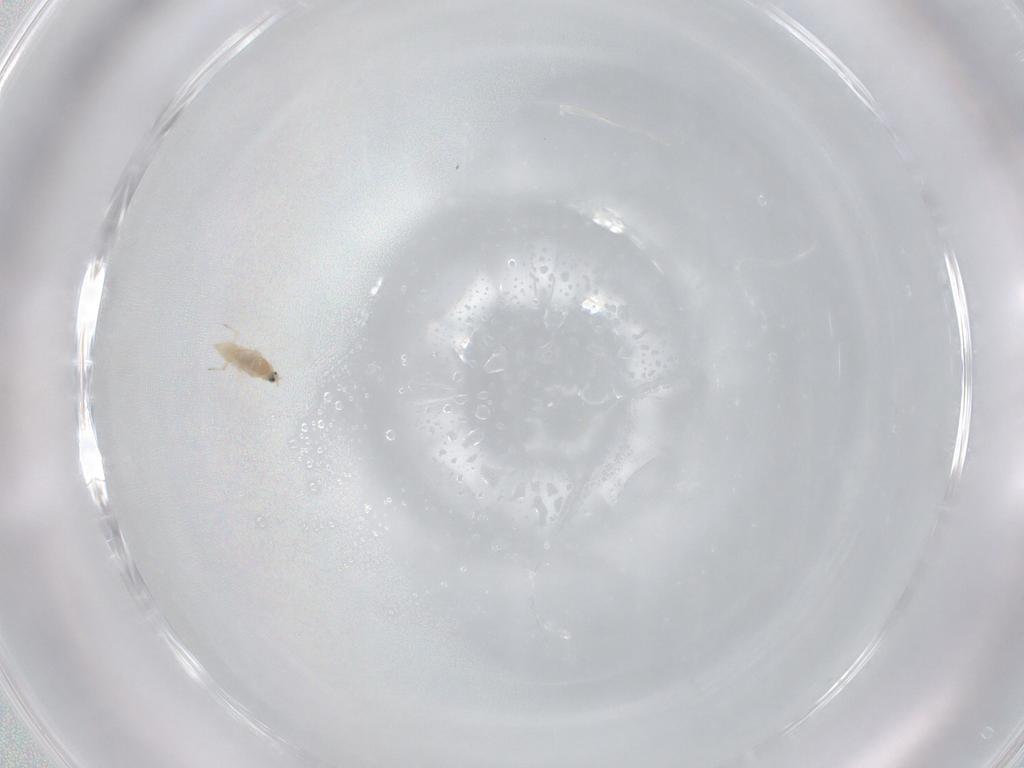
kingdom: Animalia
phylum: Arthropoda
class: Insecta
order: Hemiptera
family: Coccoidea_incertae_sedis
